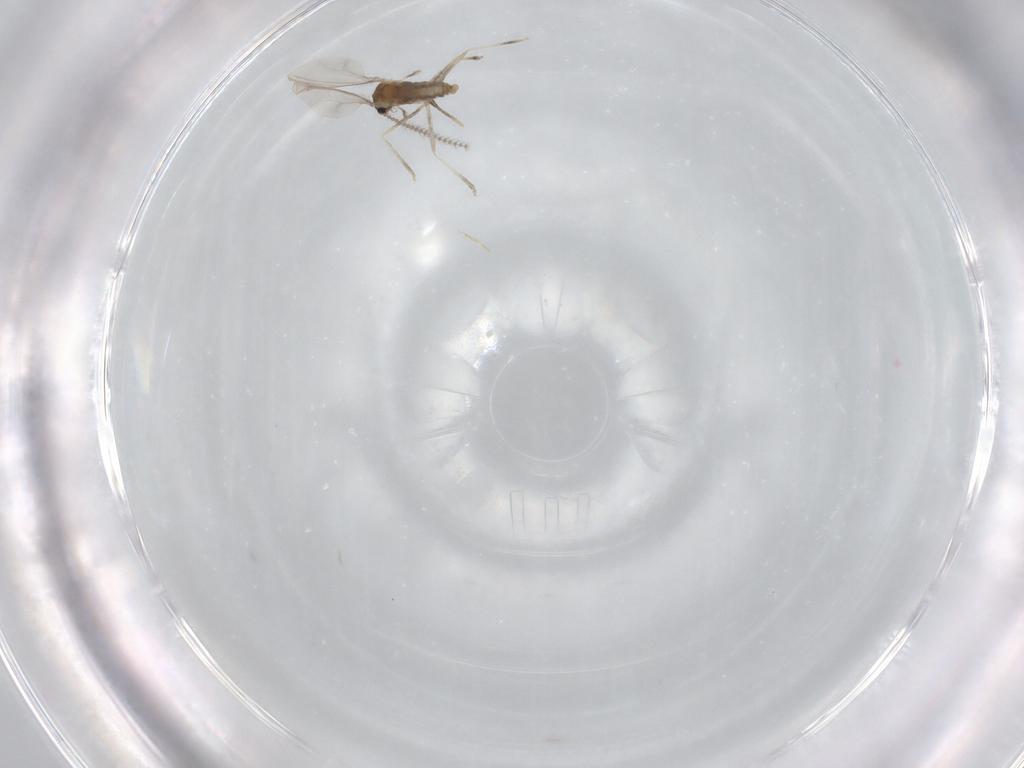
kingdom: Animalia
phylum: Arthropoda
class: Insecta
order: Diptera
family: Cecidomyiidae
